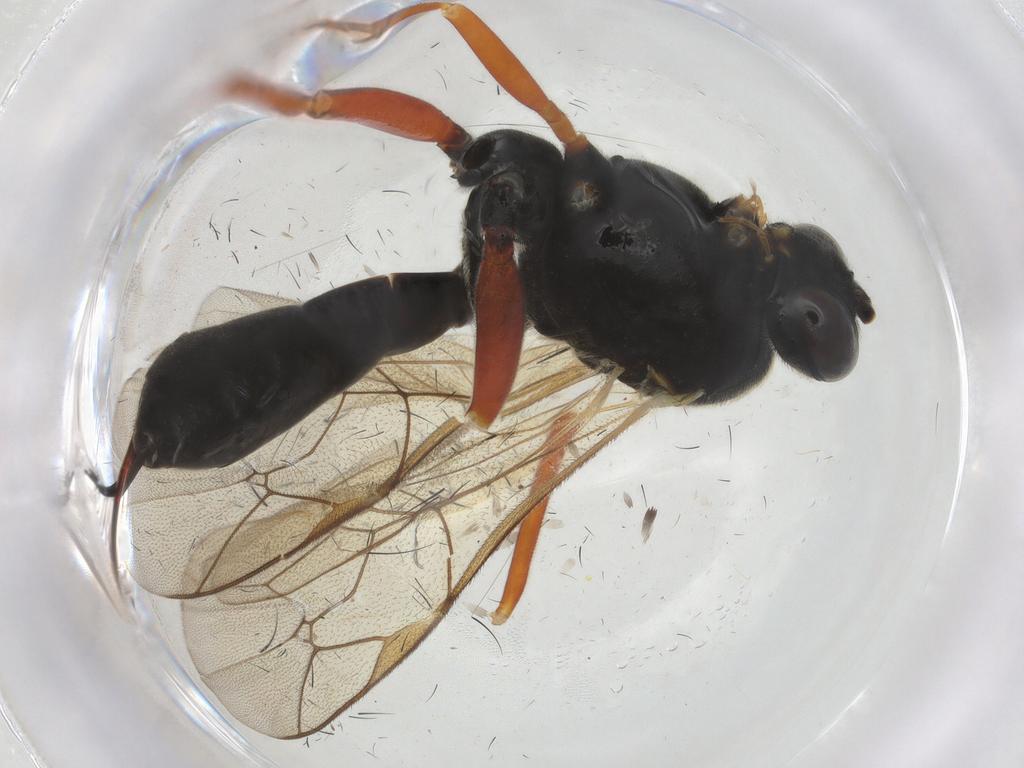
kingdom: Animalia
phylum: Arthropoda
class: Insecta
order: Hymenoptera
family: Ichneumonidae
